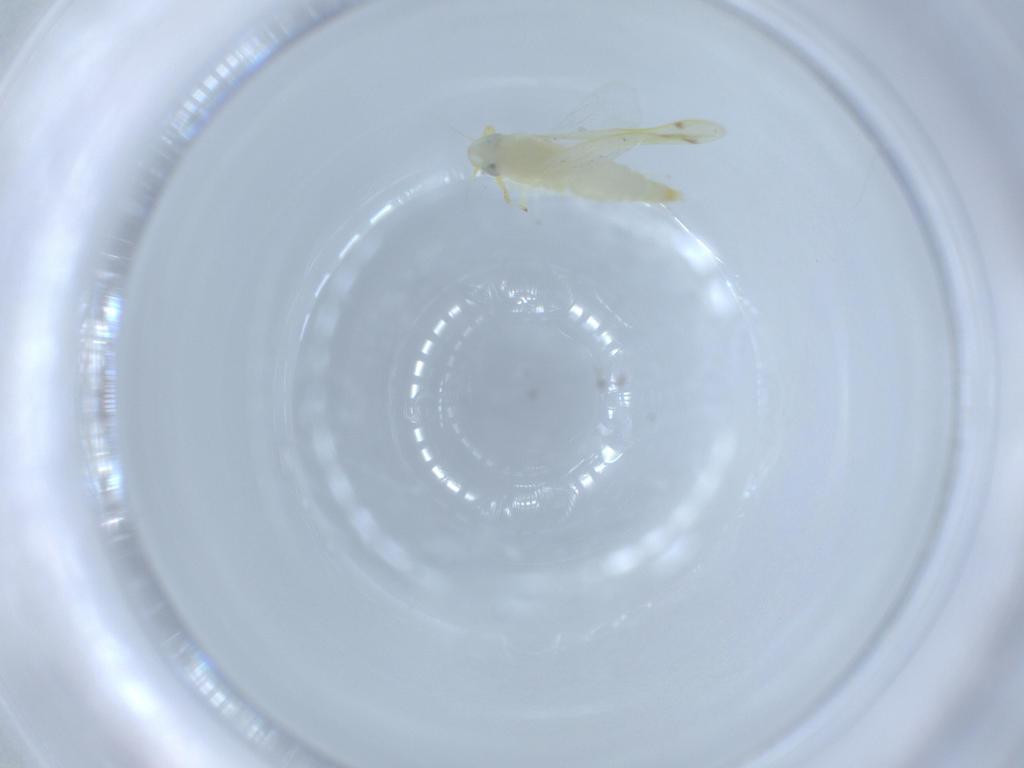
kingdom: Animalia
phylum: Arthropoda
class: Insecta
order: Hemiptera
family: Cicadellidae
